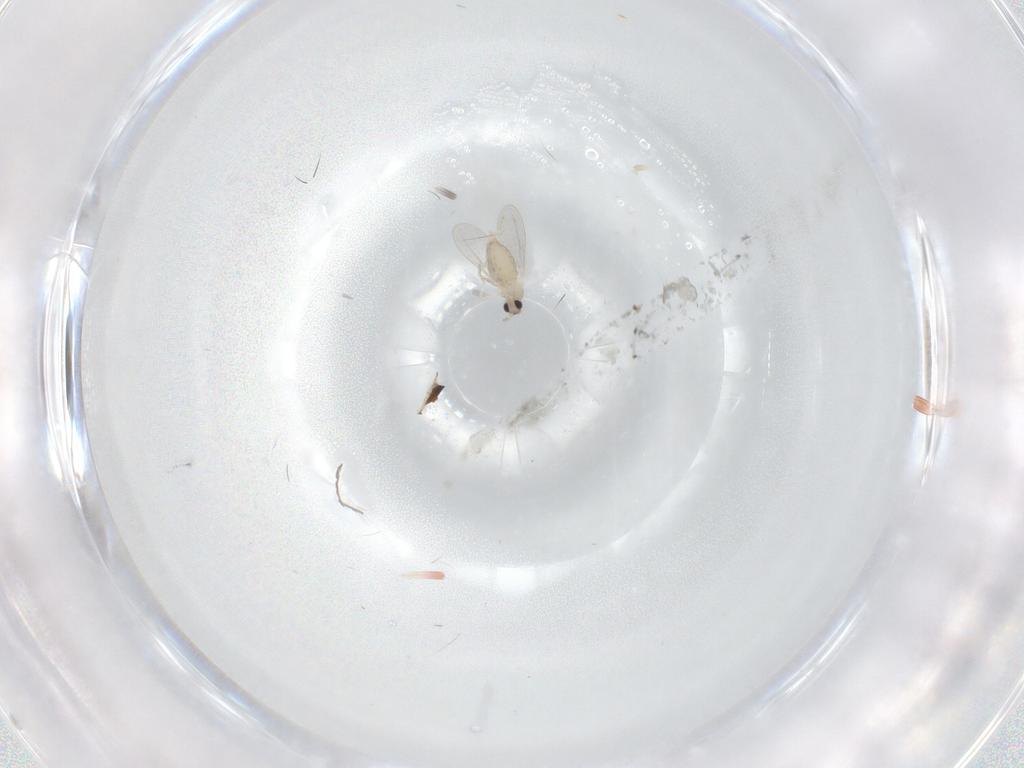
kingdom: Animalia
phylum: Arthropoda
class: Insecta
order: Diptera
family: Cecidomyiidae
